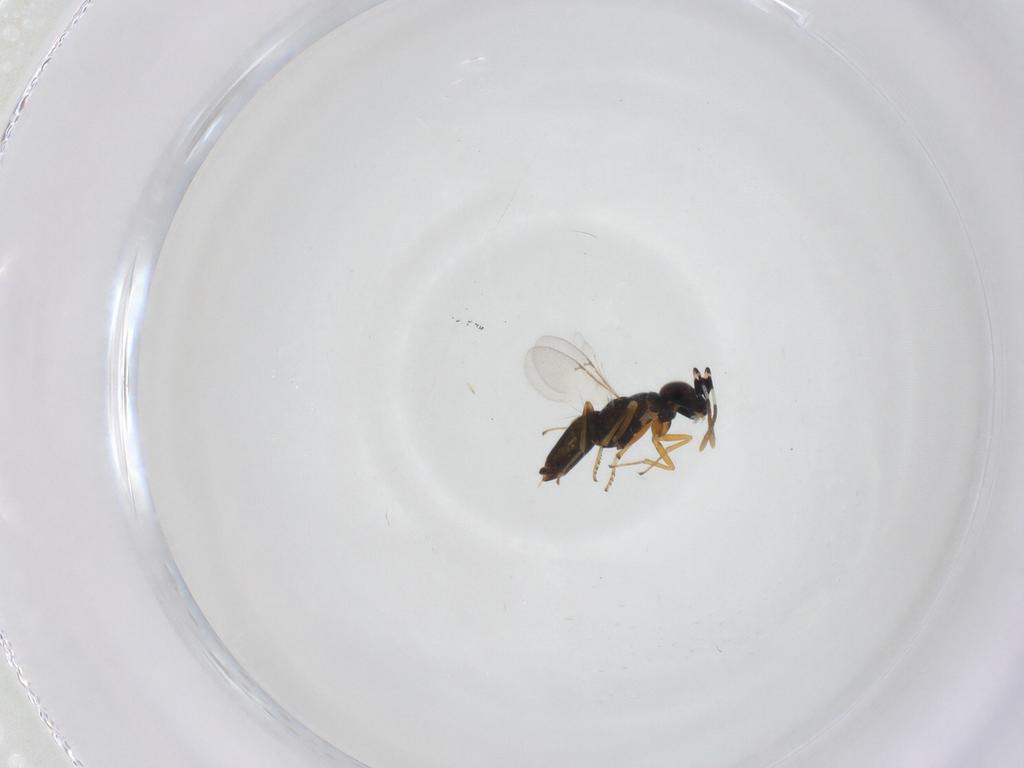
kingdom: Animalia
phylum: Arthropoda
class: Insecta
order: Hymenoptera
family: Encyrtidae
